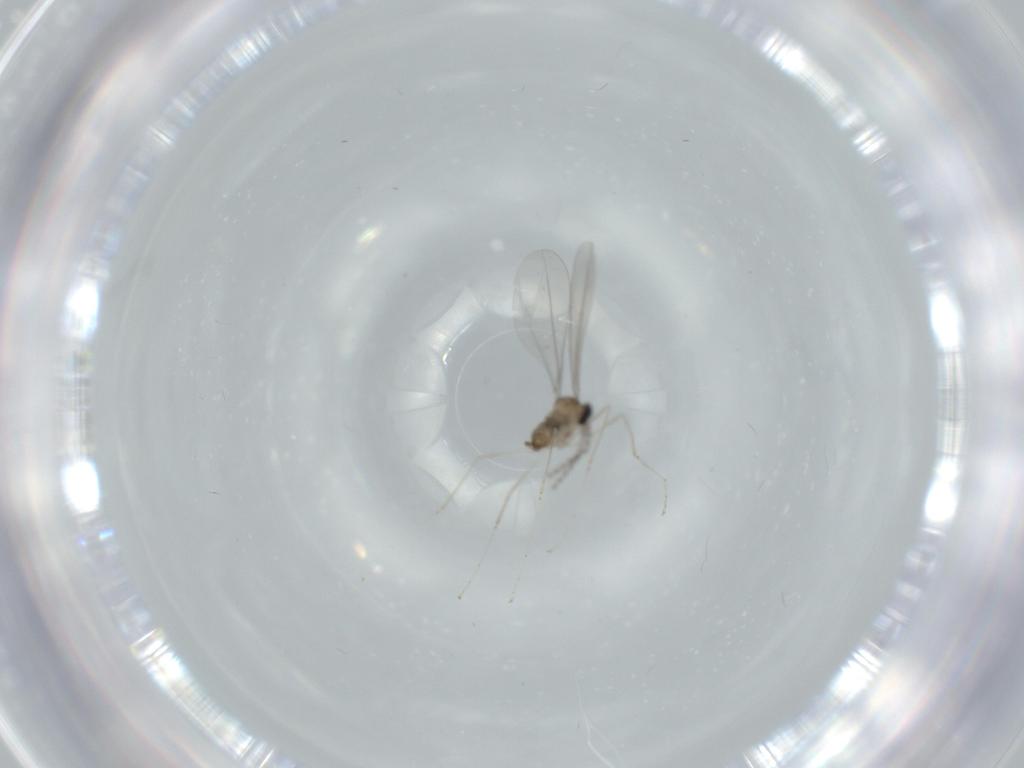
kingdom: Animalia
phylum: Arthropoda
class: Insecta
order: Diptera
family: Cecidomyiidae
